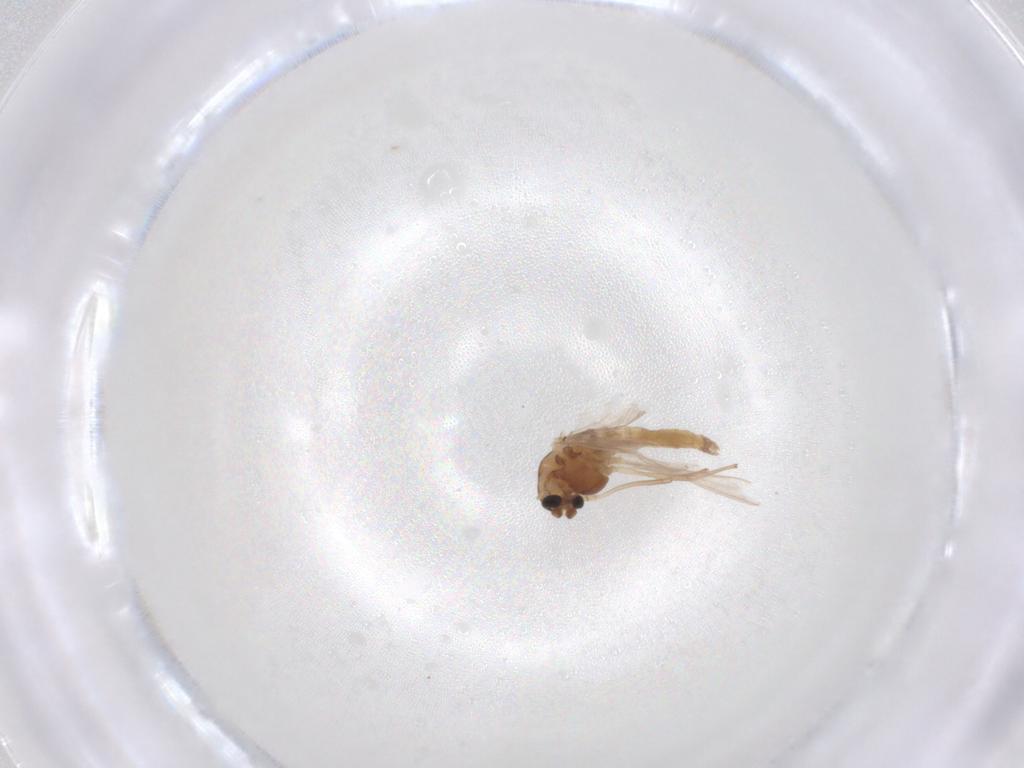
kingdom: Animalia
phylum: Arthropoda
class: Insecta
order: Diptera
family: Chironomidae
